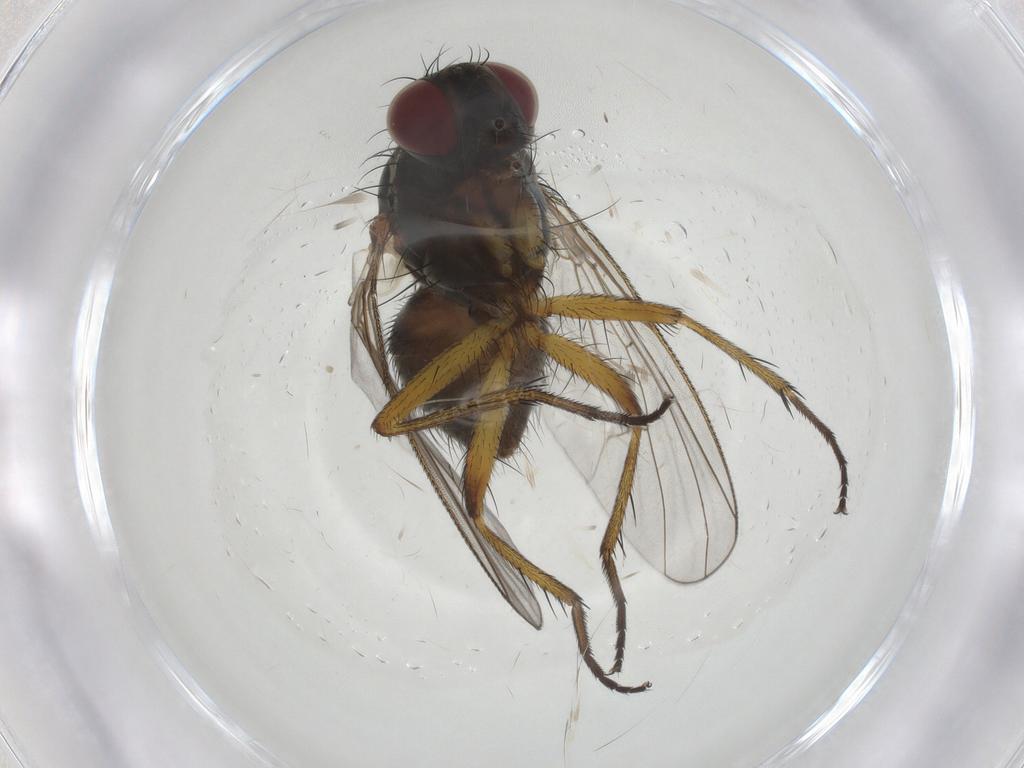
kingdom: Animalia
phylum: Arthropoda
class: Insecta
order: Diptera
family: Muscidae
